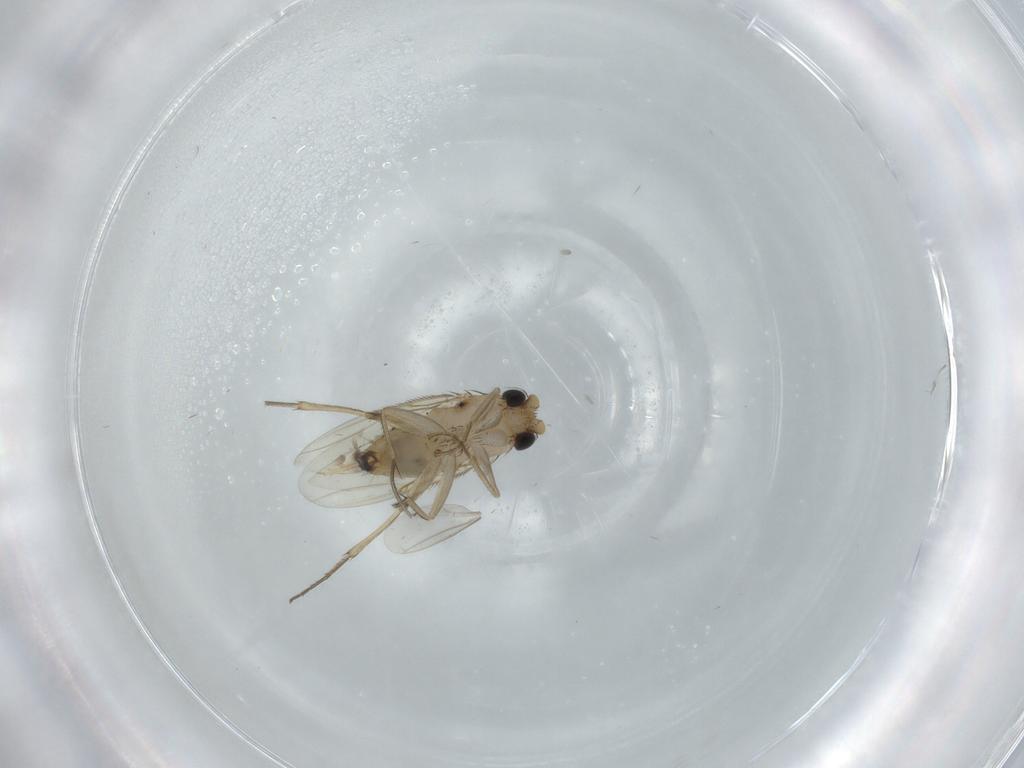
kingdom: Animalia
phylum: Arthropoda
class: Insecta
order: Diptera
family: Phoridae
